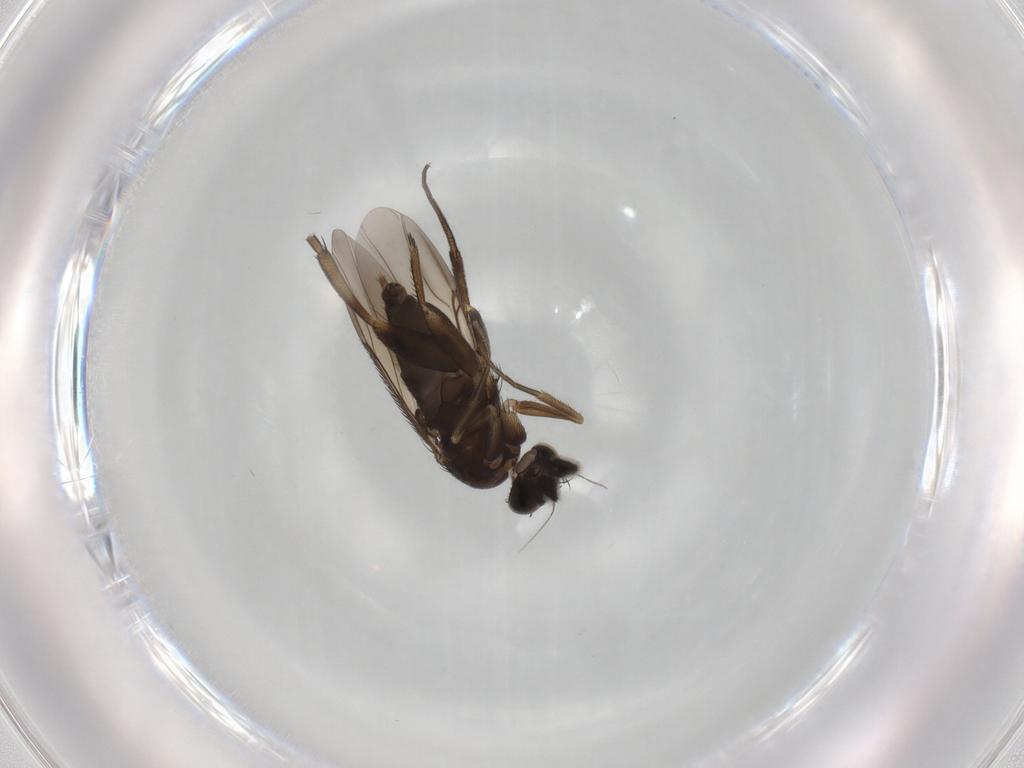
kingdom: Animalia
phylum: Arthropoda
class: Insecta
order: Diptera
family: Phoridae
